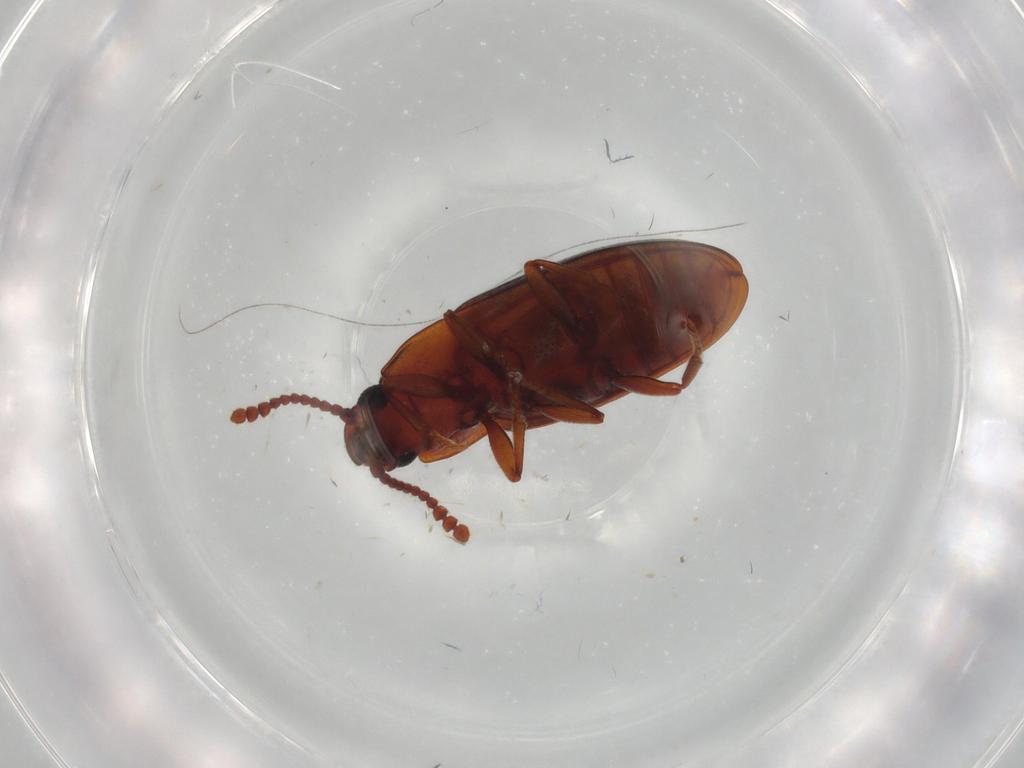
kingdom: Animalia
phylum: Arthropoda
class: Insecta
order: Coleoptera
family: Erotylidae
